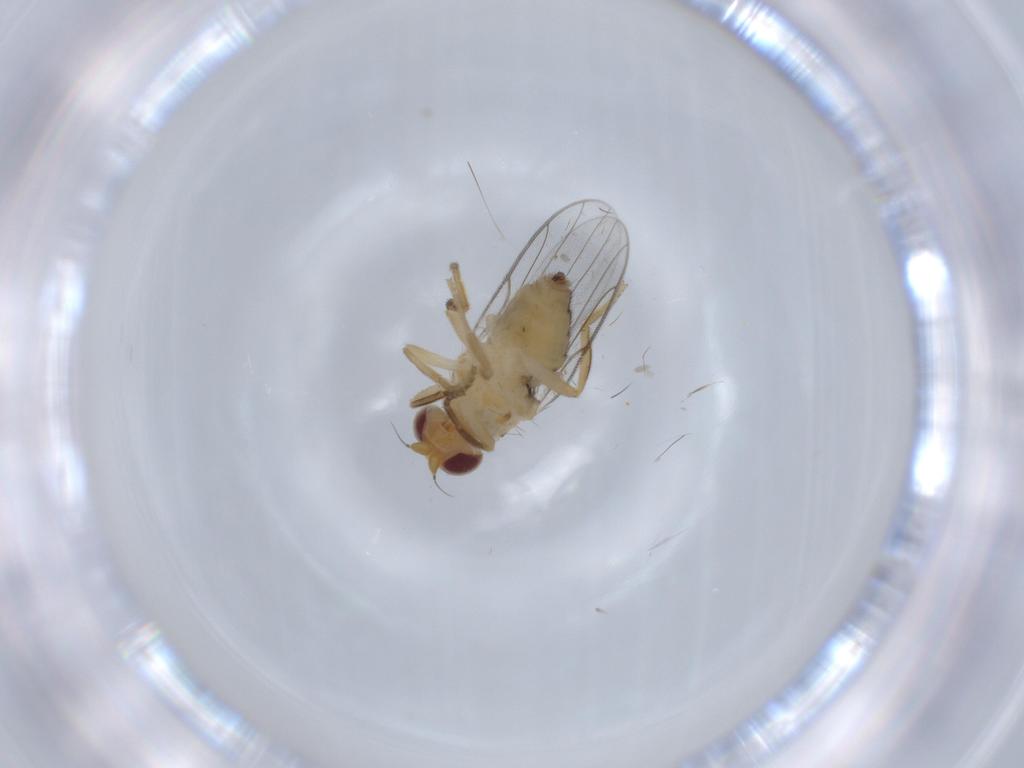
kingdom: Animalia
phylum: Arthropoda
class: Insecta
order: Diptera
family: Chloropidae
